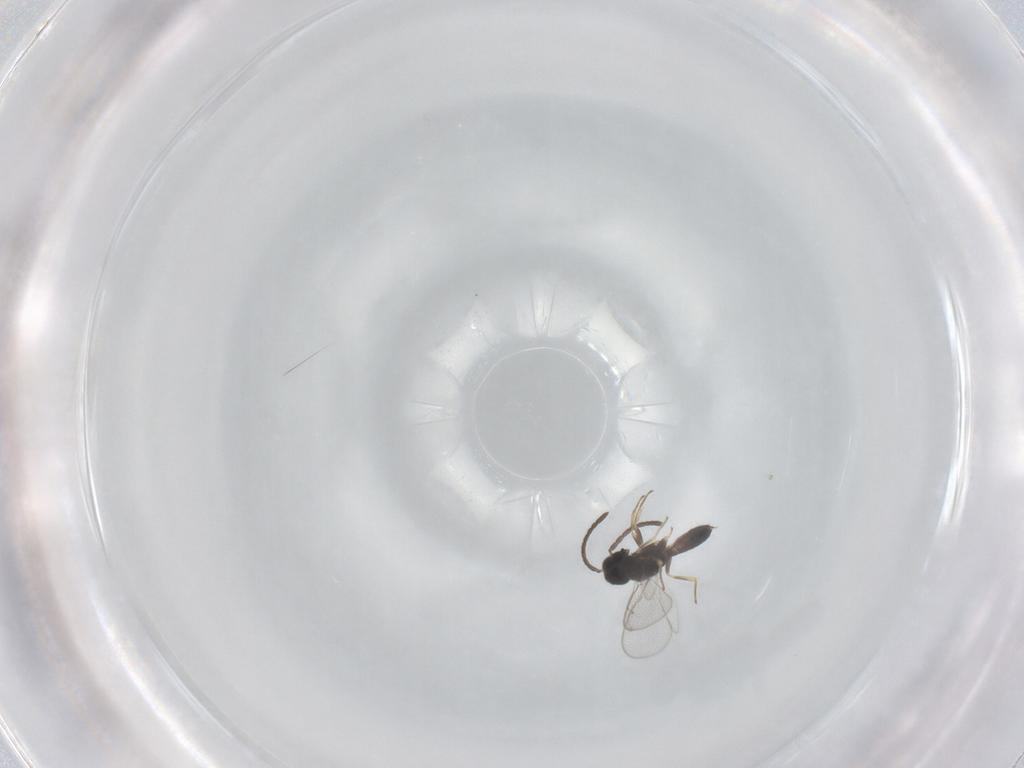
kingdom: Animalia
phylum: Arthropoda
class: Insecta
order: Hymenoptera
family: Eupelmidae
